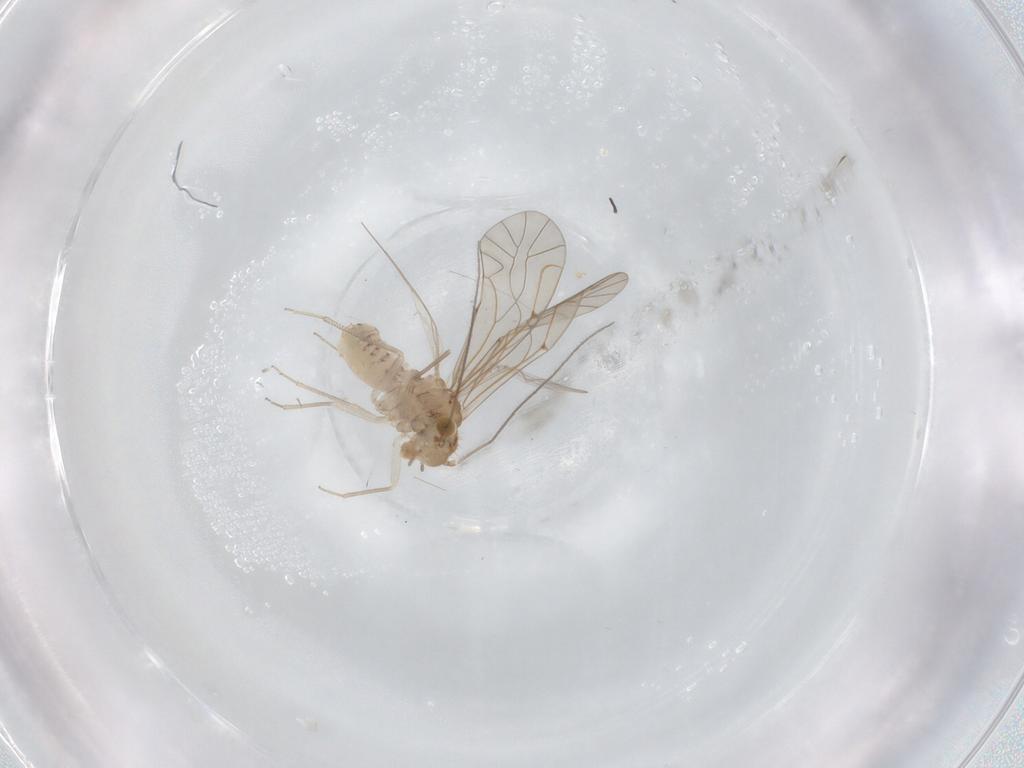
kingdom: Animalia
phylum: Arthropoda
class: Insecta
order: Psocodea
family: Lachesillidae
